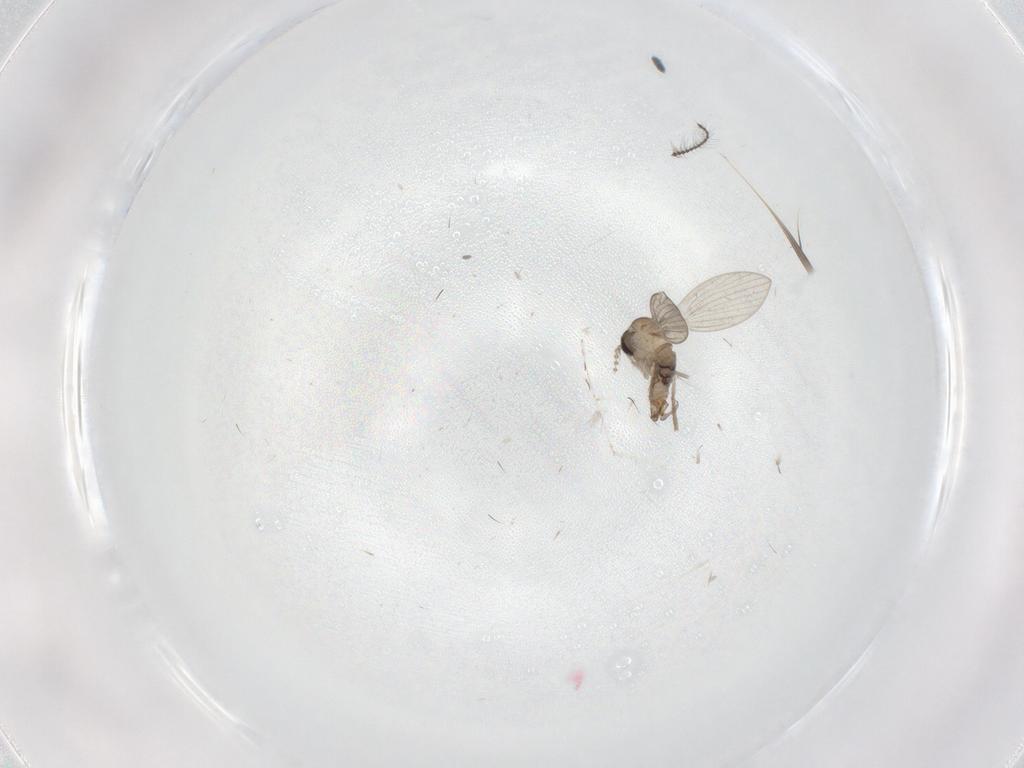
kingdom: Animalia
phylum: Arthropoda
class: Insecta
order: Diptera
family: Psychodidae
